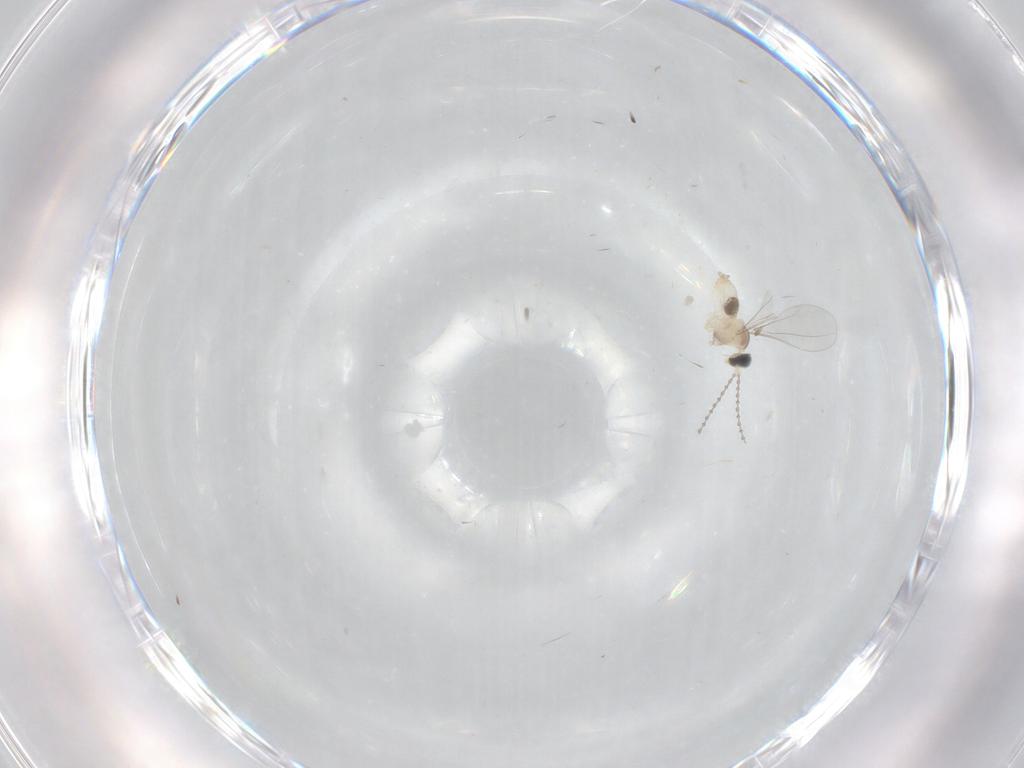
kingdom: Animalia
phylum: Arthropoda
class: Insecta
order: Diptera
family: Cecidomyiidae
